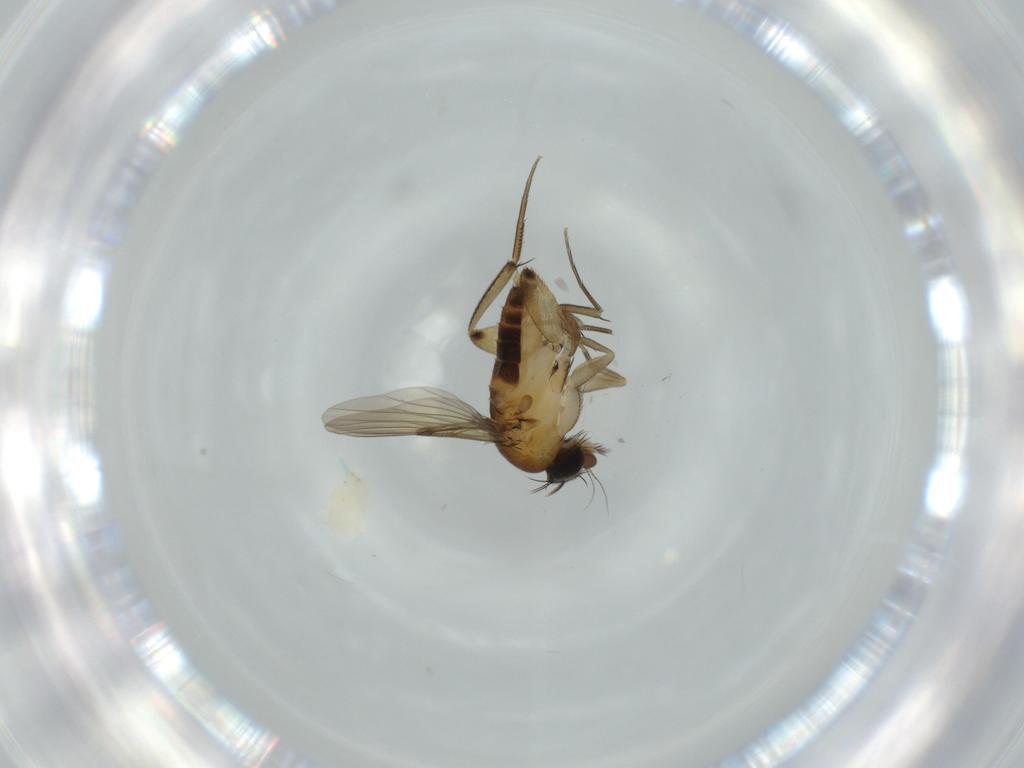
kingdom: Animalia
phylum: Arthropoda
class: Insecta
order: Diptera
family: Phoridae
